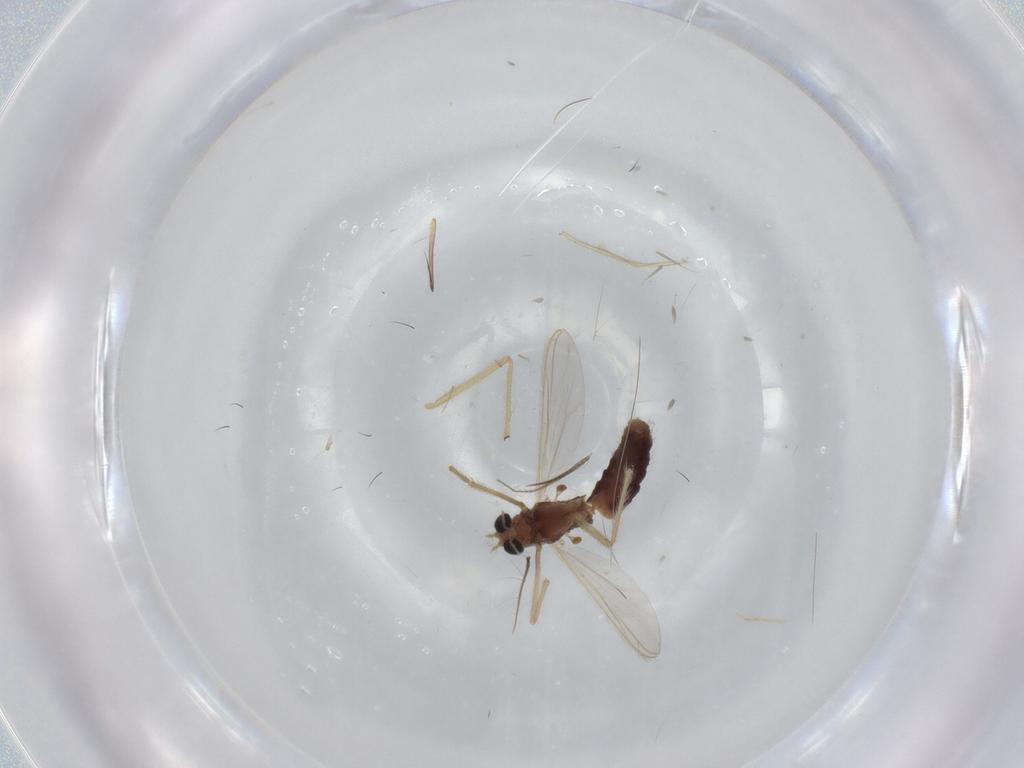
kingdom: Animalia
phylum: Arthropoda
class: Insecta
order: Diptera
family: Chironomidae
